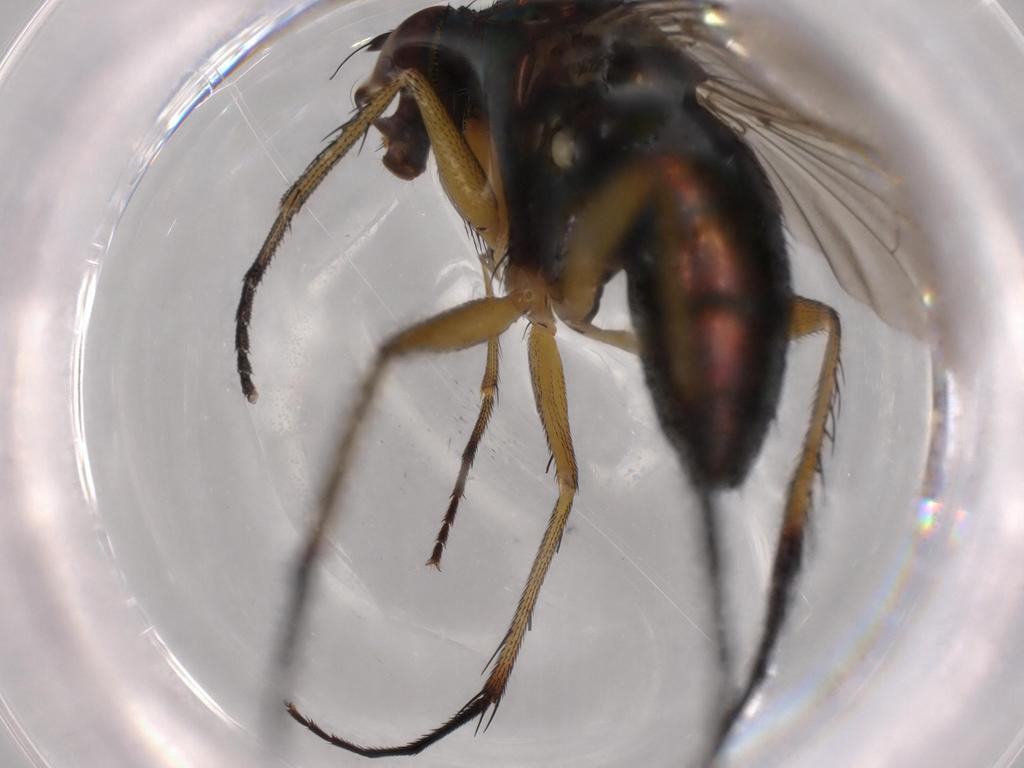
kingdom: Animalia
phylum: Arthropoda
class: Insecta
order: Diptera
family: Dolichopodidae
